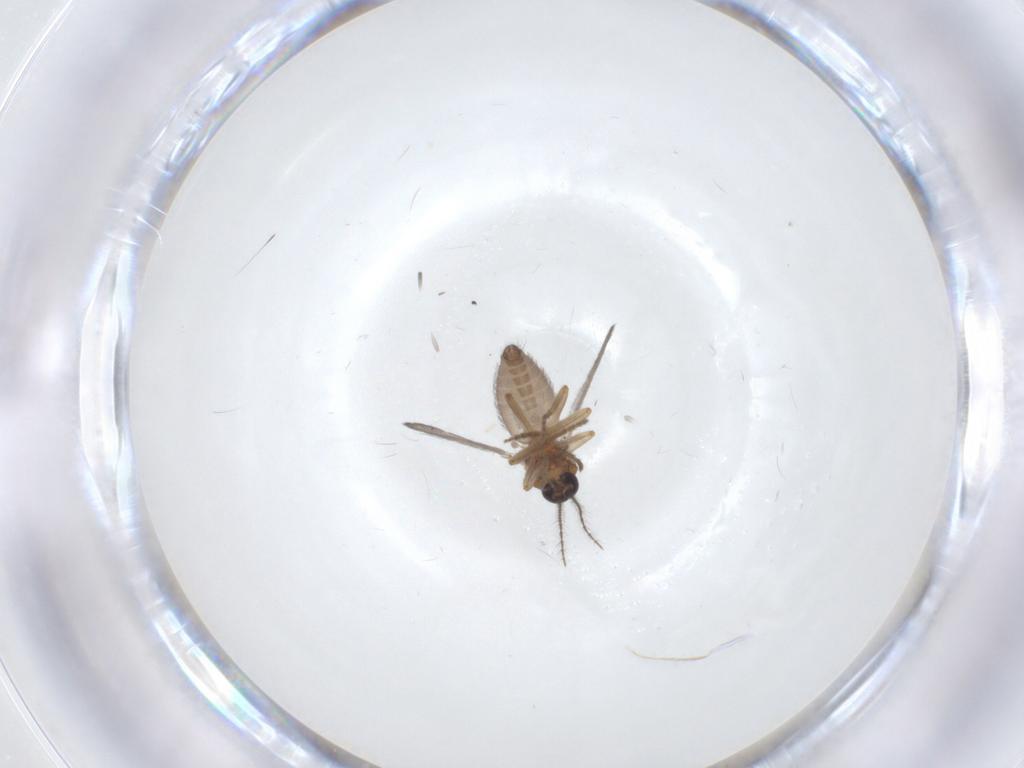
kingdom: Animalia
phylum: Arthropoda
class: Insecta
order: Diptera
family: Ceratopogonidae
